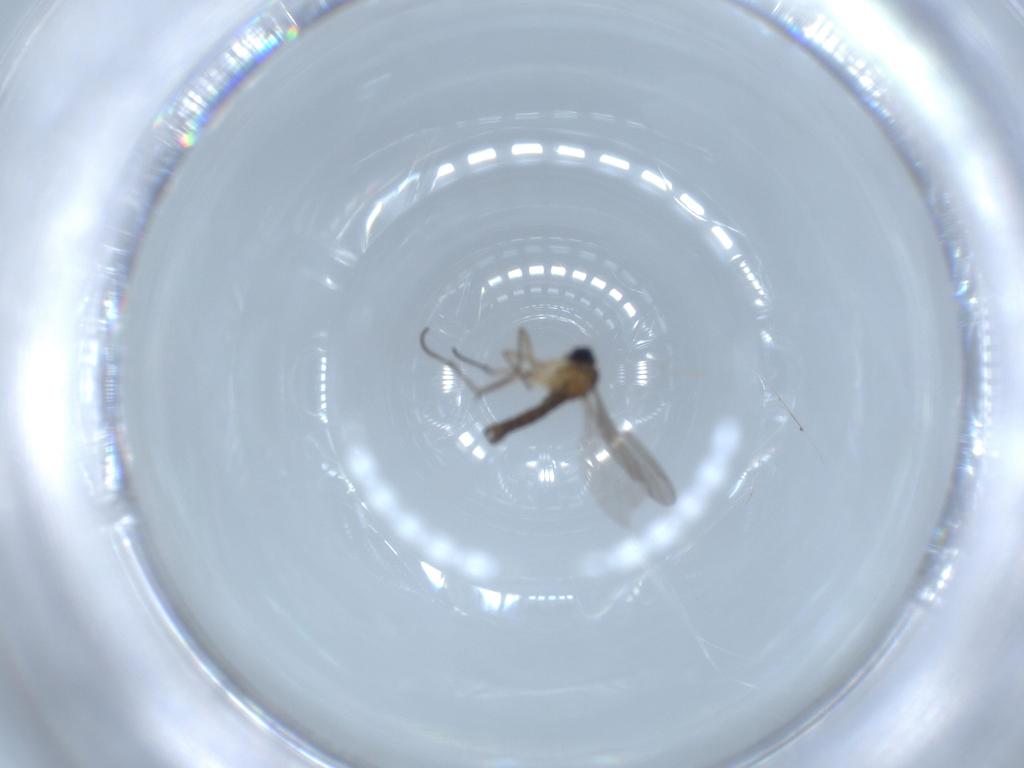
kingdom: Animalia
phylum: Arthropoda
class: Insecta
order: Diptera
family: Sciaridae
